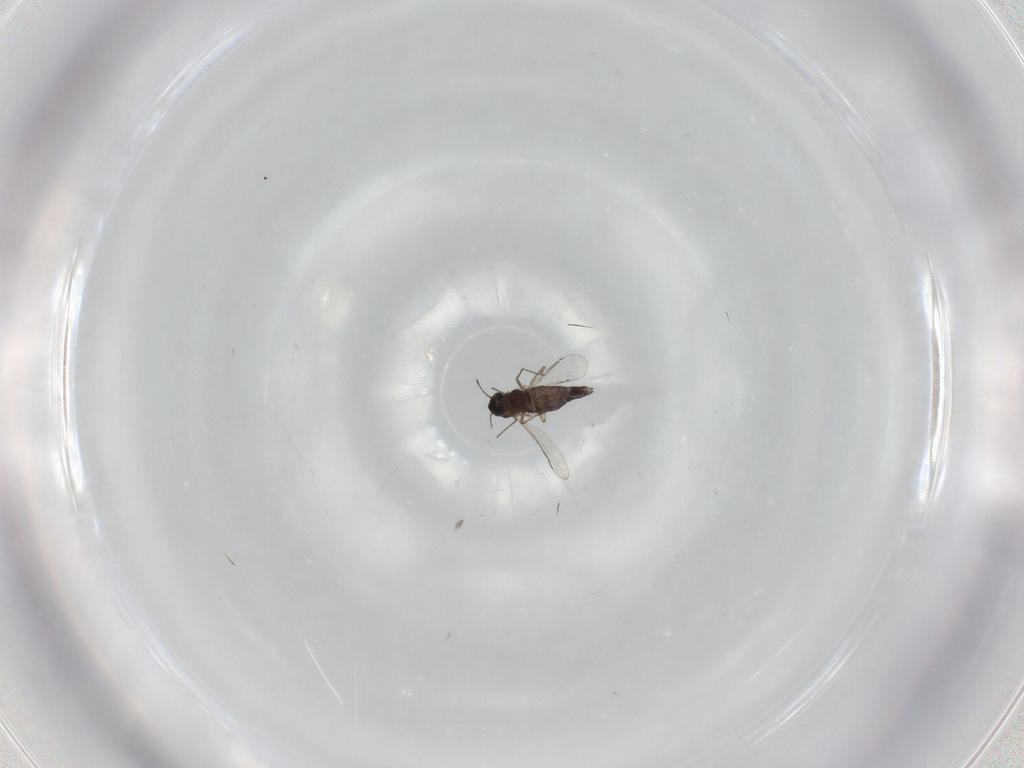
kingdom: Animalia
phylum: Arthropoda
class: Insecta
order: Diptera
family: Chironomidae
